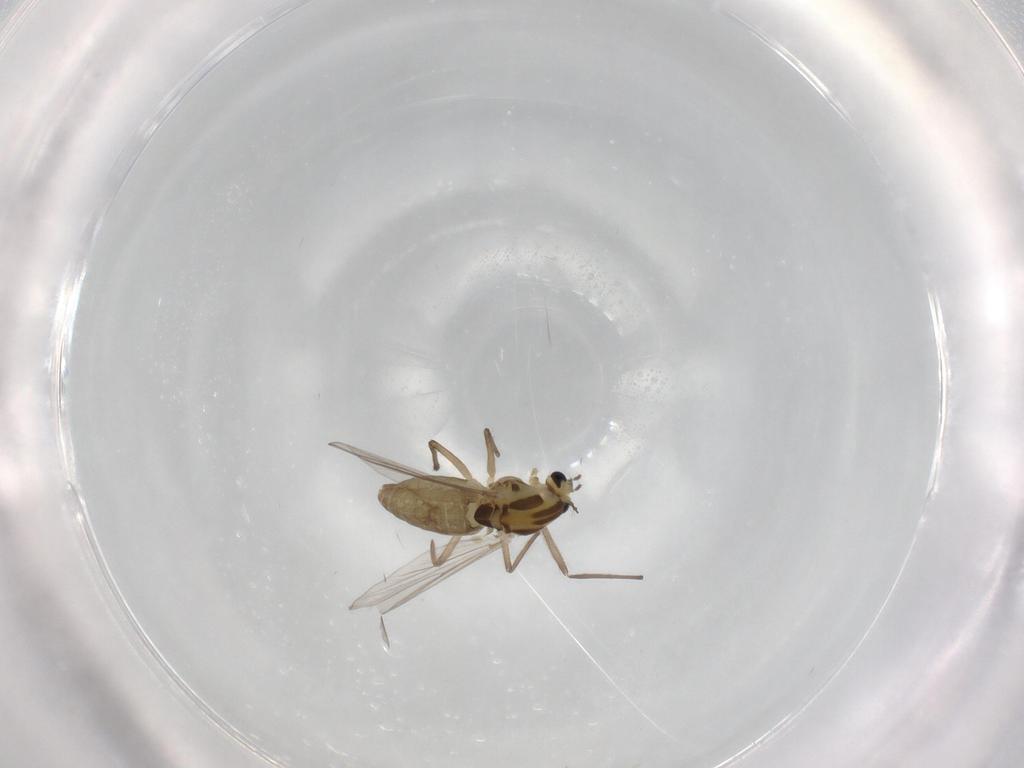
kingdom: Animalia
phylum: Arthropoda
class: Insecta
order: Diptera
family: Chironomidae
